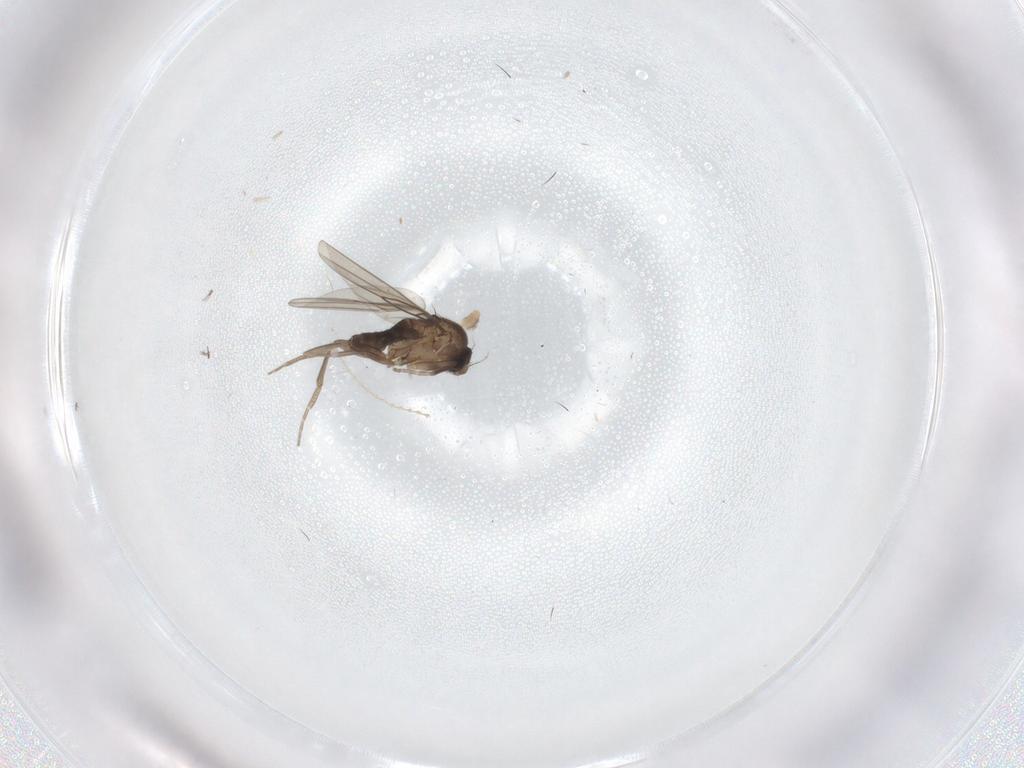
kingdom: Animalia
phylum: Arthropoda
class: Insecta
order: Diptera
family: Phoridae
